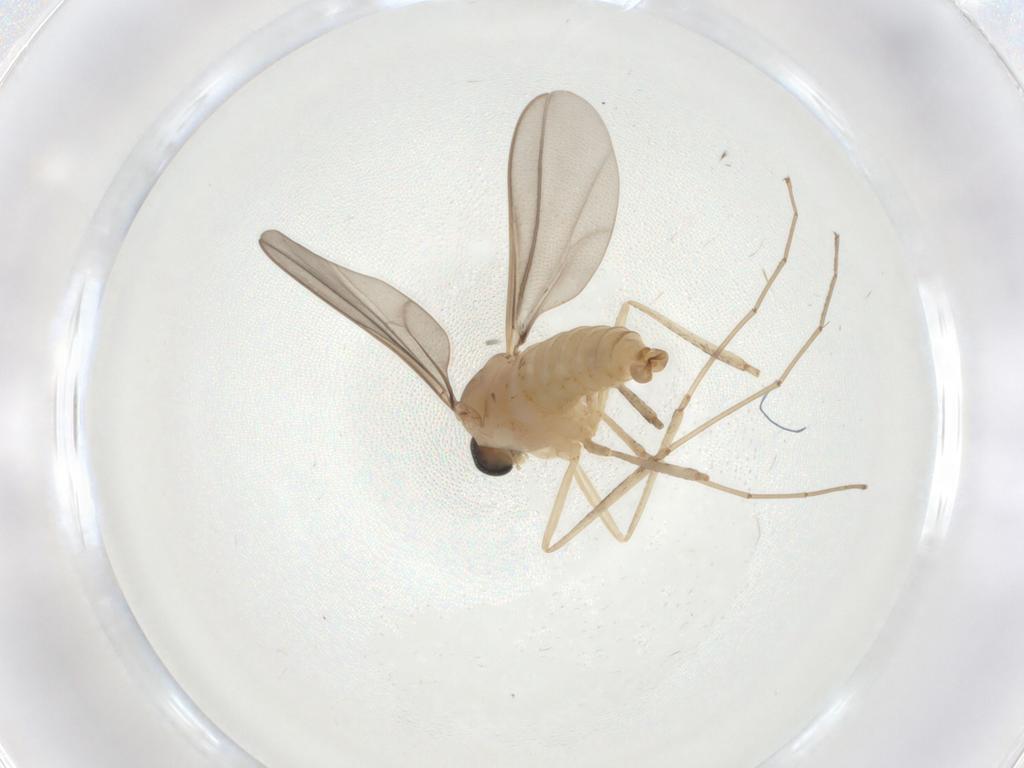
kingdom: Animalia
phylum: Arthropoda
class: Insecta
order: Diptera
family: Cecidomyiidae
